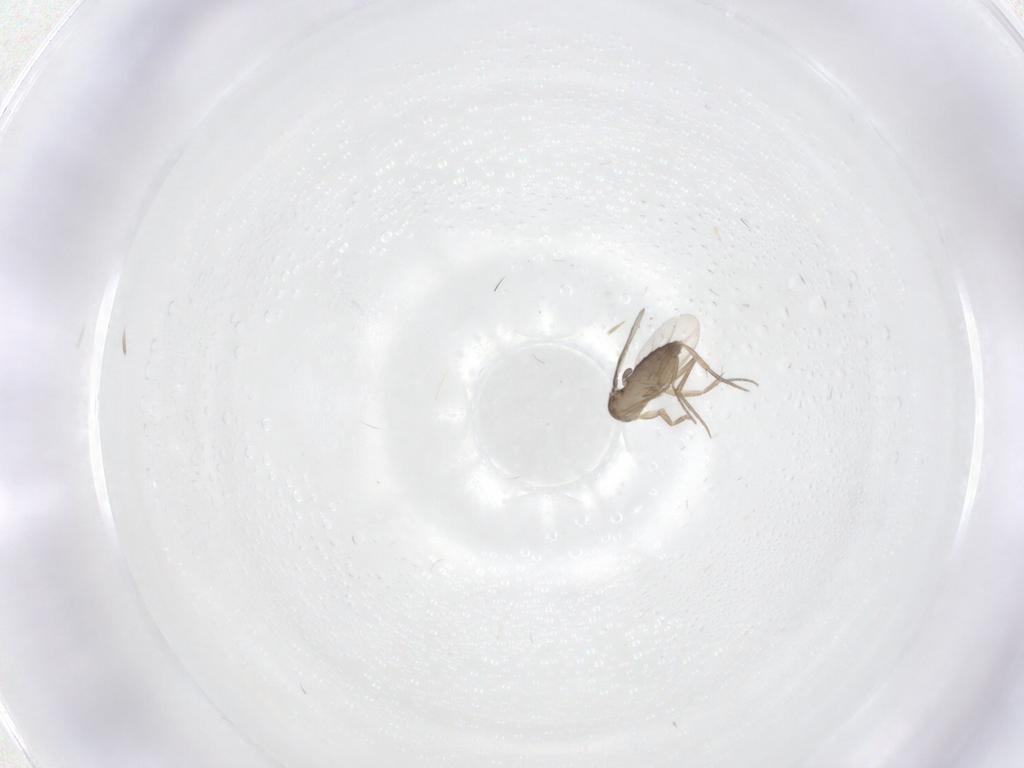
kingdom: Animalia
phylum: Arthropoda
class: Insecta
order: Diptera
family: Phoridae
